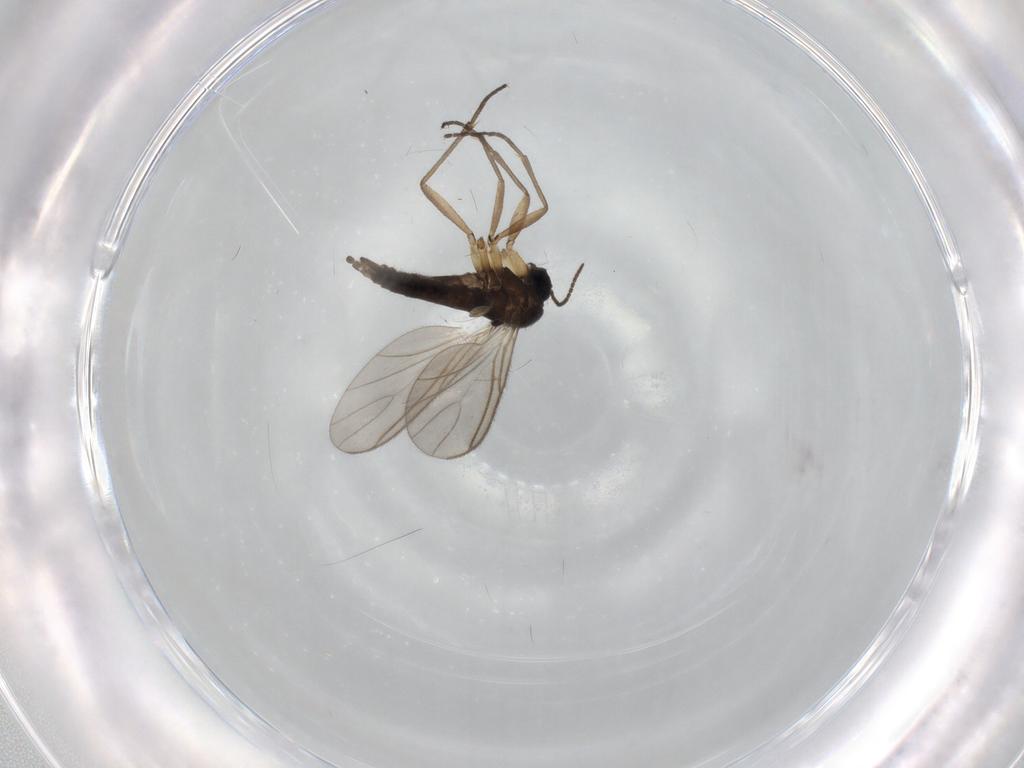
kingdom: Animalia
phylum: Arthropoda
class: Insecta
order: Diptera
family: Sciaridae
